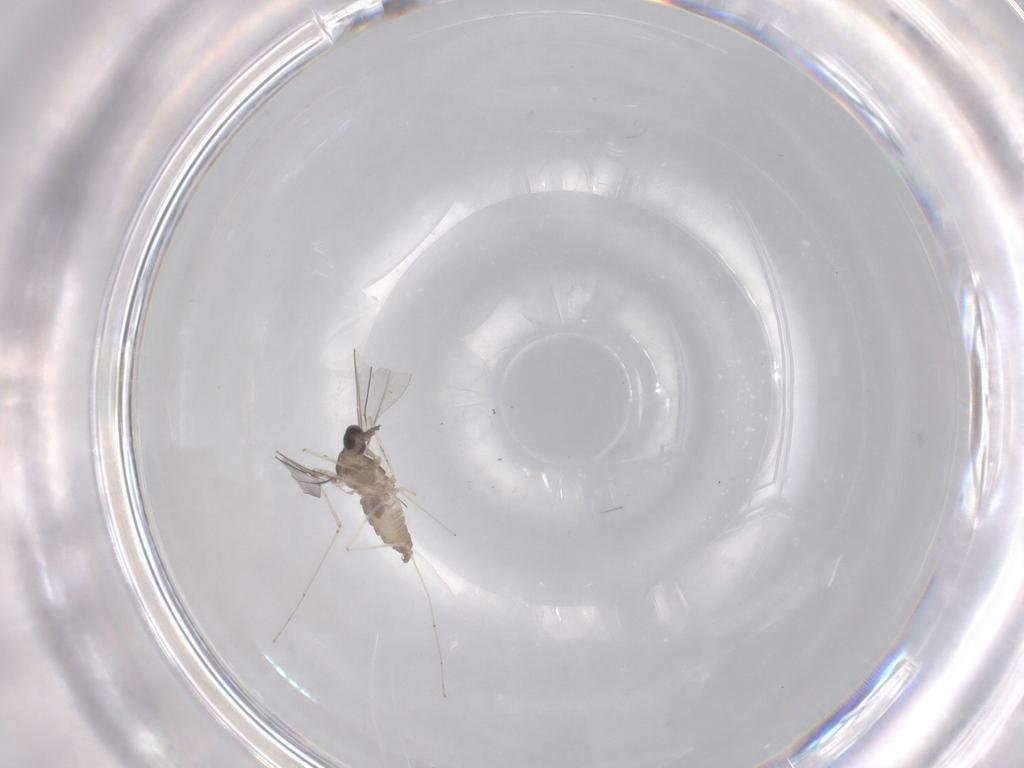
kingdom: Animalia
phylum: Arthropoda
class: Insecta
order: Diptera
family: Cecidomyiidae
